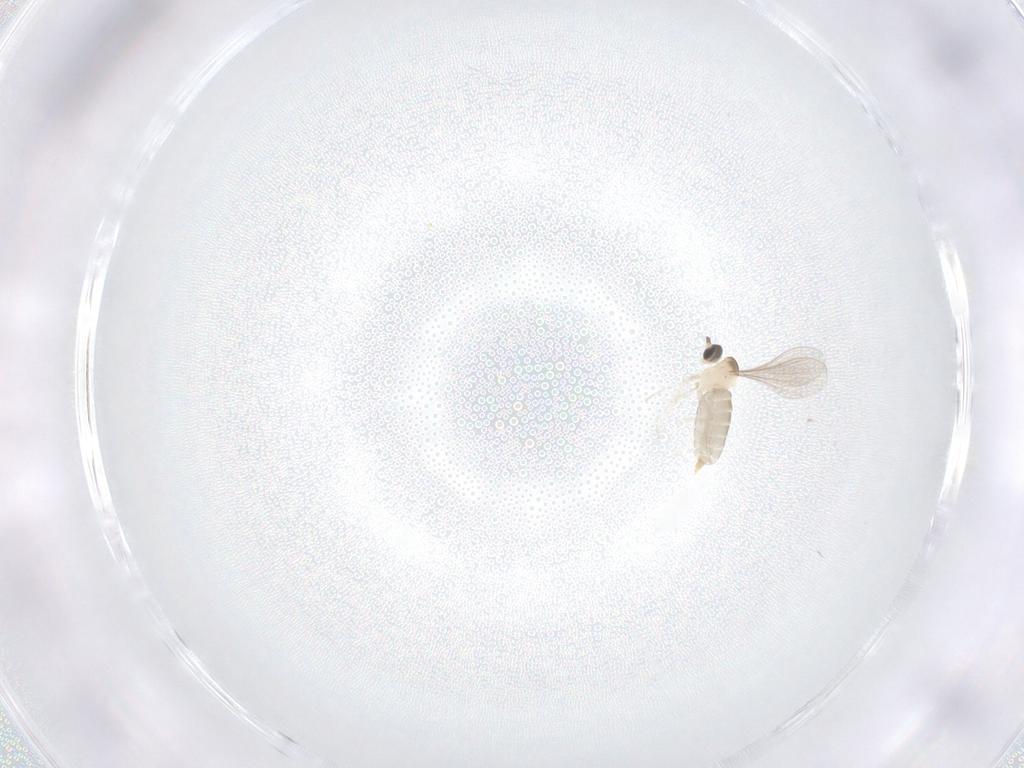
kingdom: Animalia
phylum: Arthropoda
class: Insecta
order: Diptera
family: Cecidomyiidae
